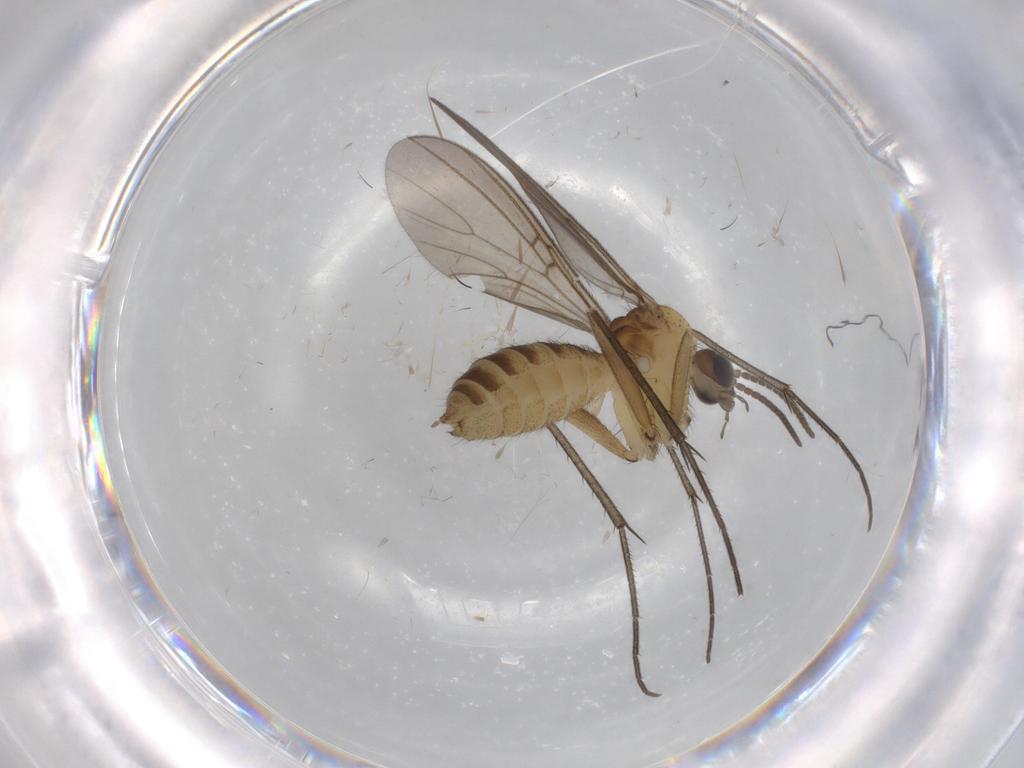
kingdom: Animalia
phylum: Arthropoda
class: Insecta
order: Diptera
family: Mycetophilidae
